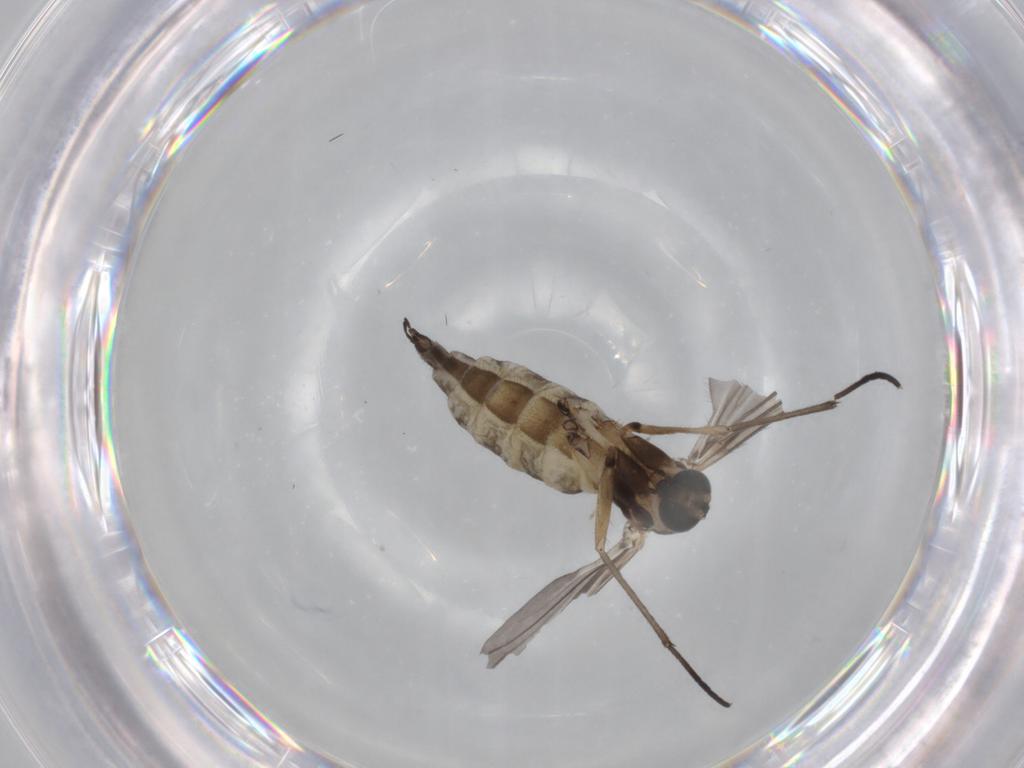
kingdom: Animalia
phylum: Arthropoda
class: Insecta
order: Diptera
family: Sciaridae
